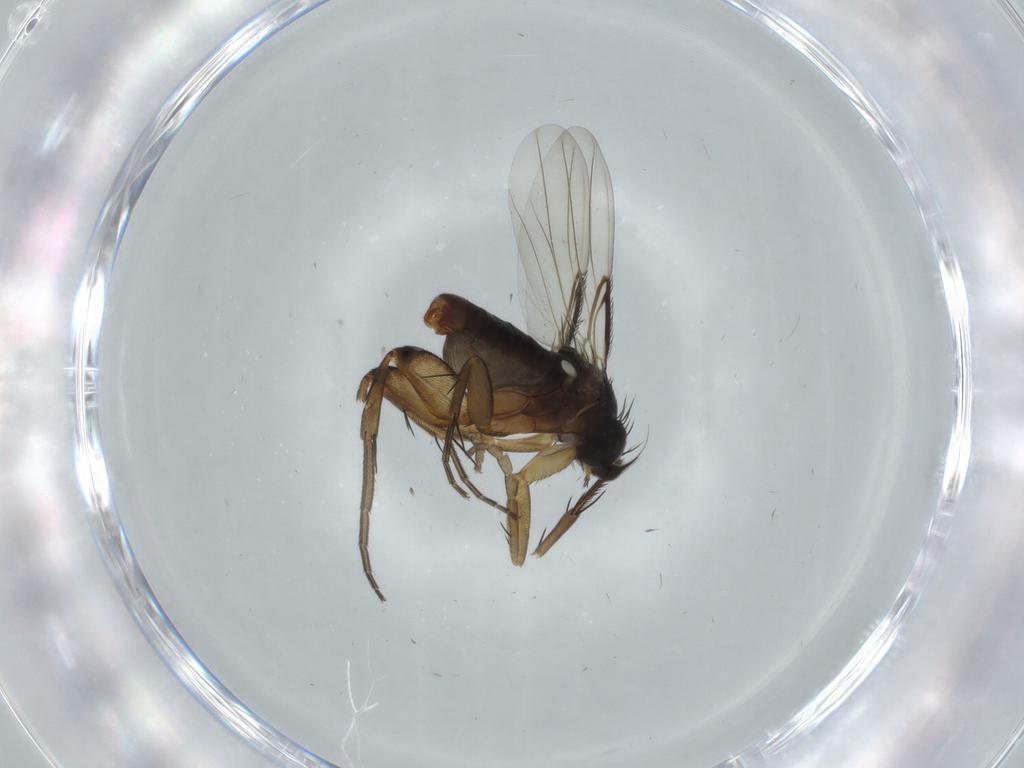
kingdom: Animalia
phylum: Arthropoda
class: Insecta
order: Diptera
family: Phoridae
